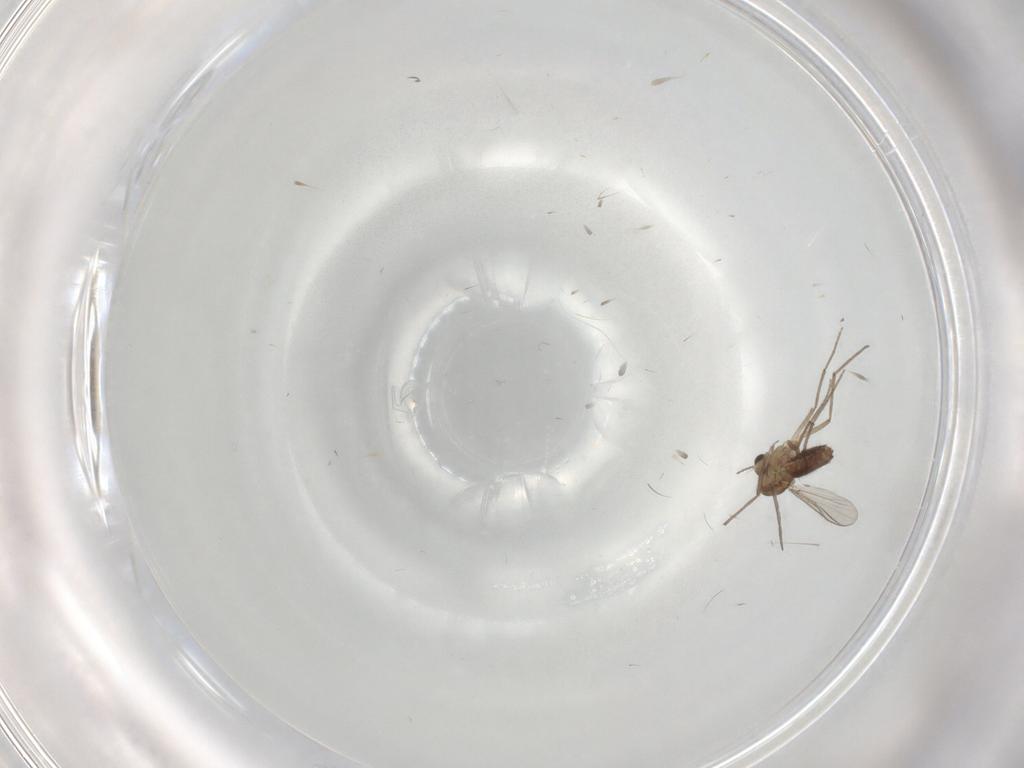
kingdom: Animalia
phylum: Arthropoda
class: Insecta
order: Diptera
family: Chironomidae
